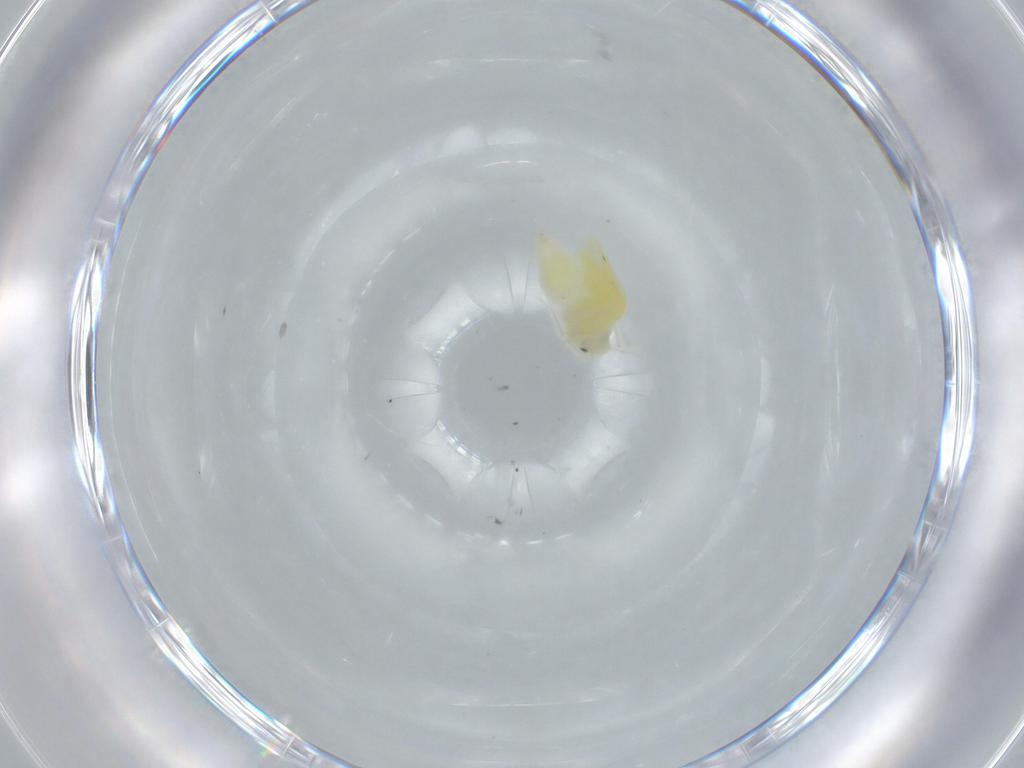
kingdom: Animalia
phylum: Arthropoda
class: Insecta
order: Hemiptera
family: Aleyrodidae
